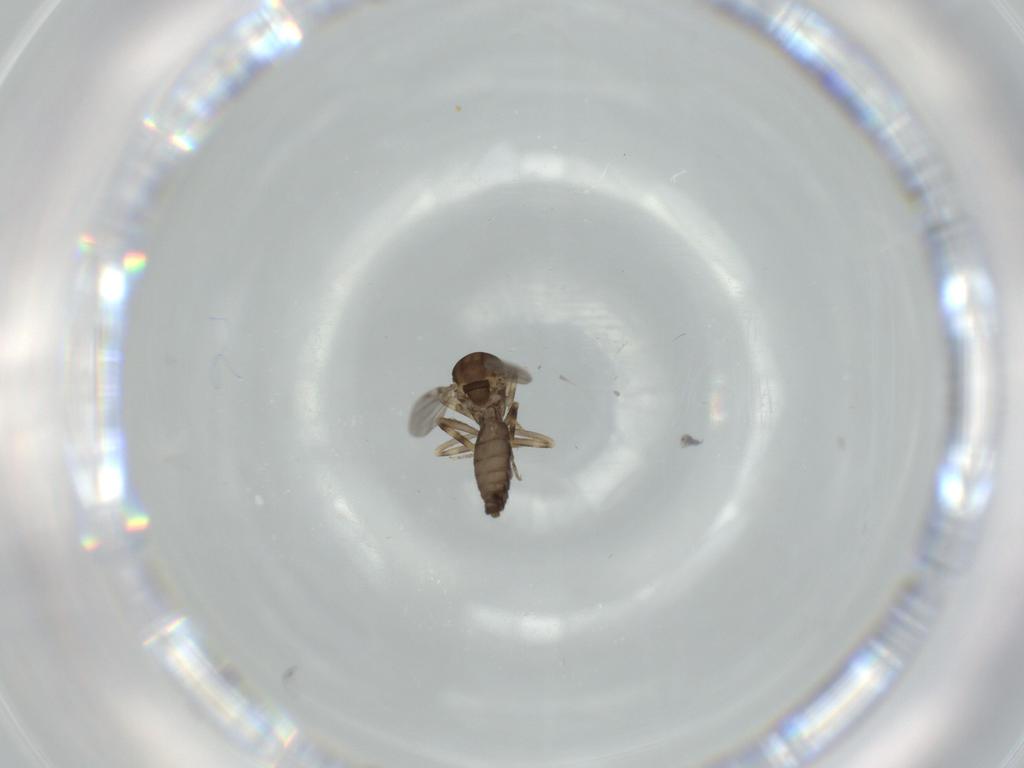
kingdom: Animalia
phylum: Arthropoda
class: Insecta
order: Diptera
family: Ceratopogonidae
